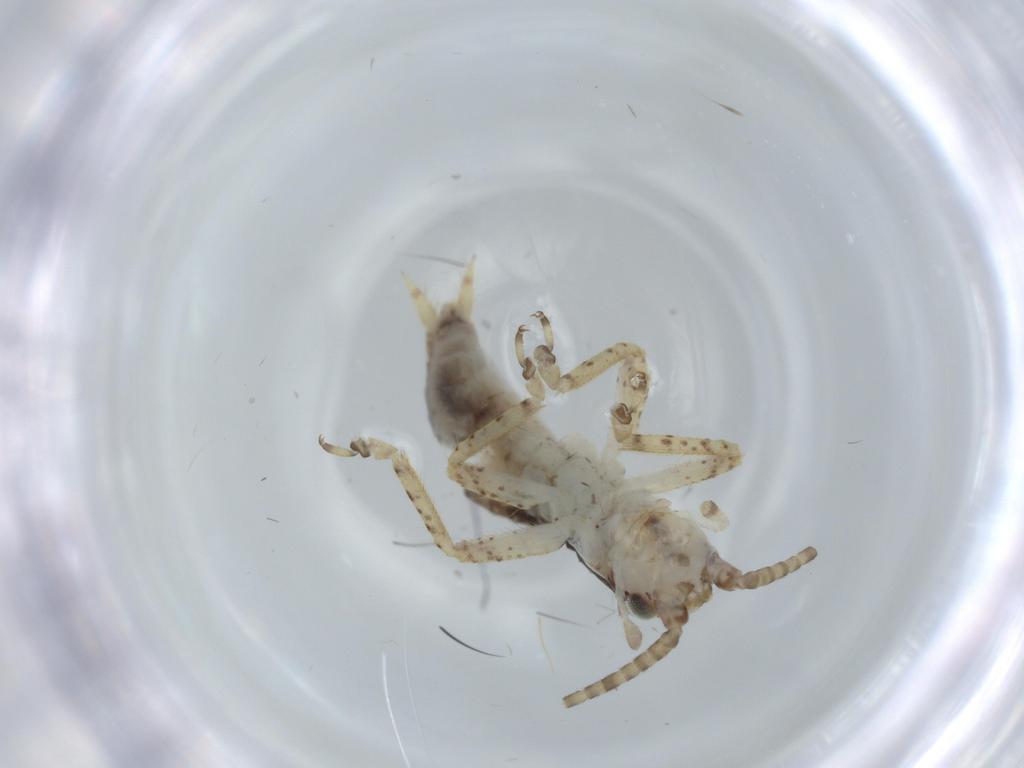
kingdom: Animalia
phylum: Arthropoda
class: Insecta
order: Orthoptera
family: Gryllidae
